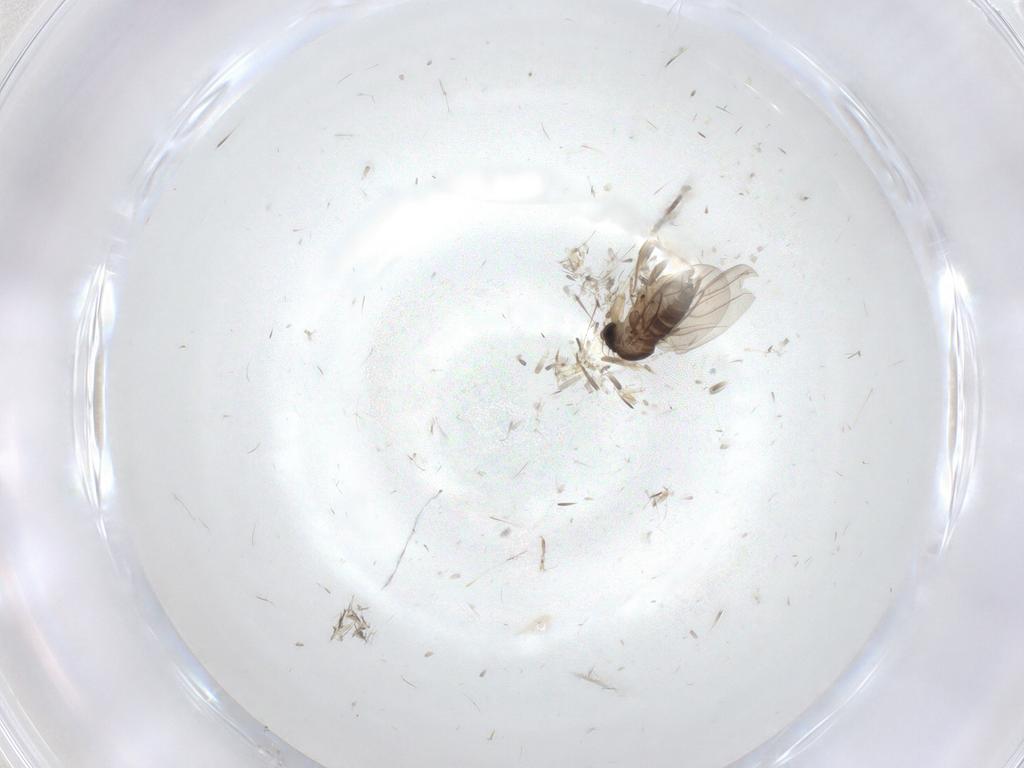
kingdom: Animalia
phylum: Arthropoda
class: Insecta
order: Diptera
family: Phoridae
